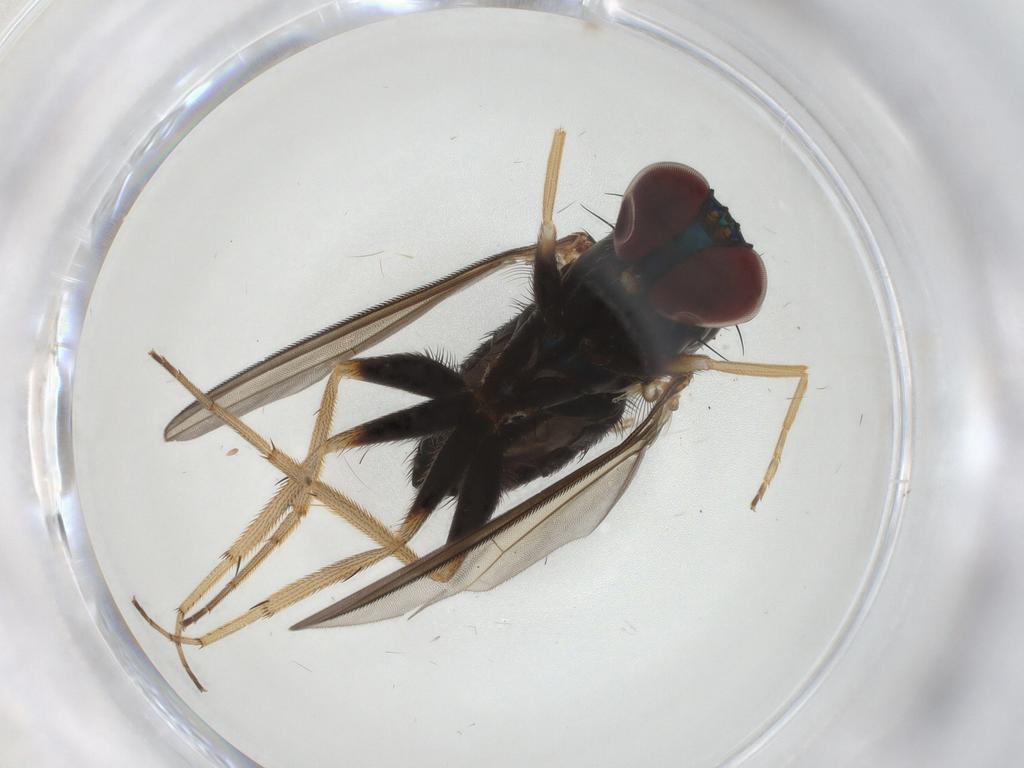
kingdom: Animalia
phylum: Arthropoda
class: Insecta
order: Diptera
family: Dolichopodidae
